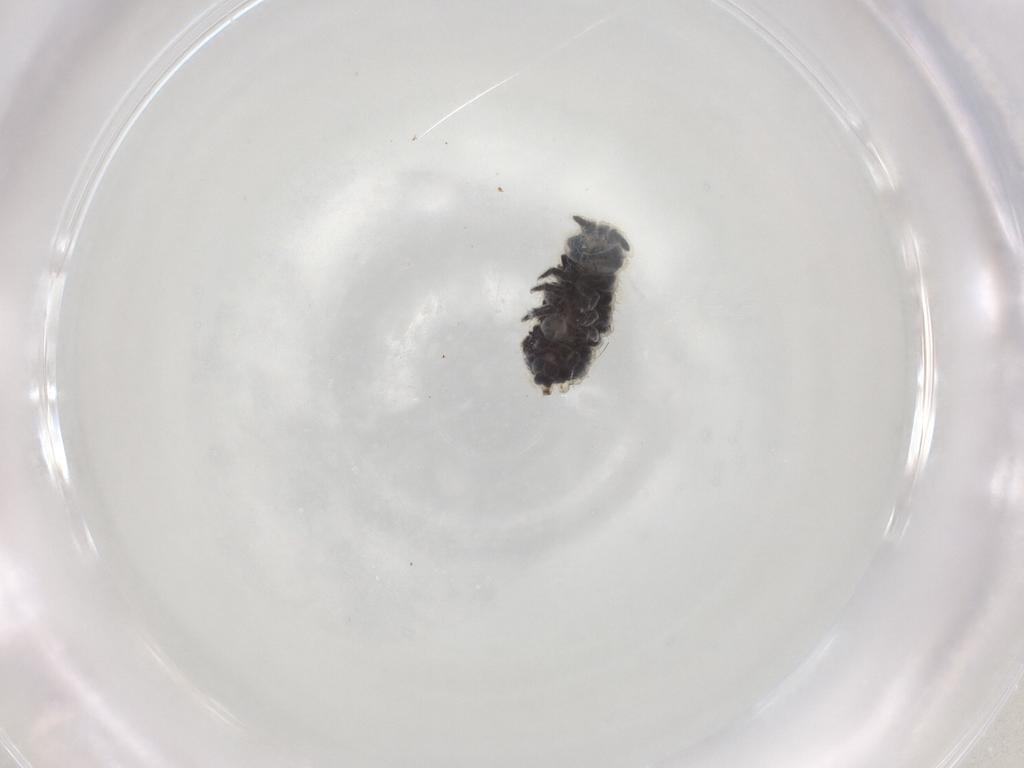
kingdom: Animalia
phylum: Arthropoda
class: Collembola
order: Poduromorpha
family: Neanuridae
